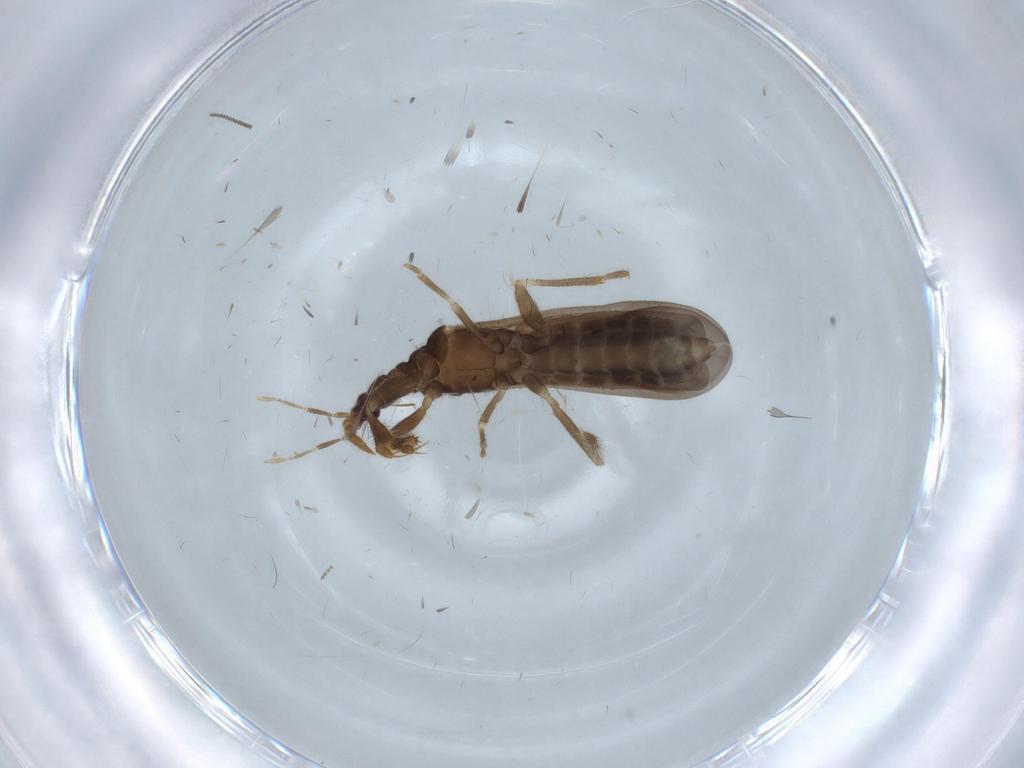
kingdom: Animalia
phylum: Arthropoda
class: Insecta
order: Hemiptera
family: Enicocephalidae
